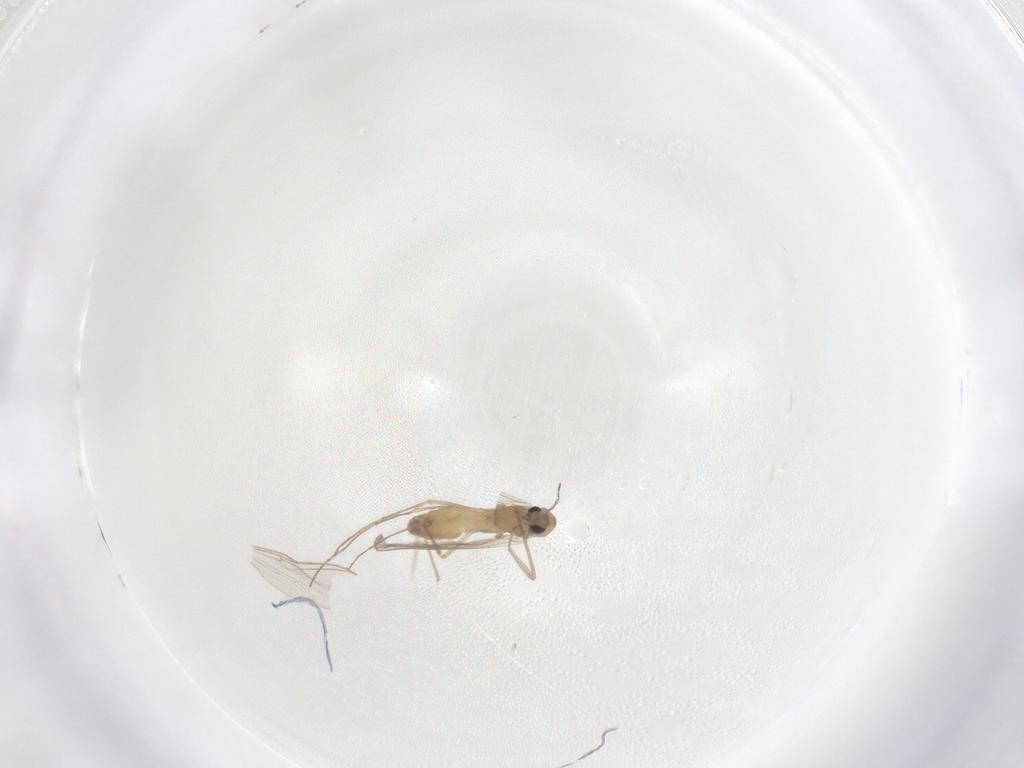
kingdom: Animalia
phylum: Arthropoda
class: Insecta
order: Diptera
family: Chironomidae
